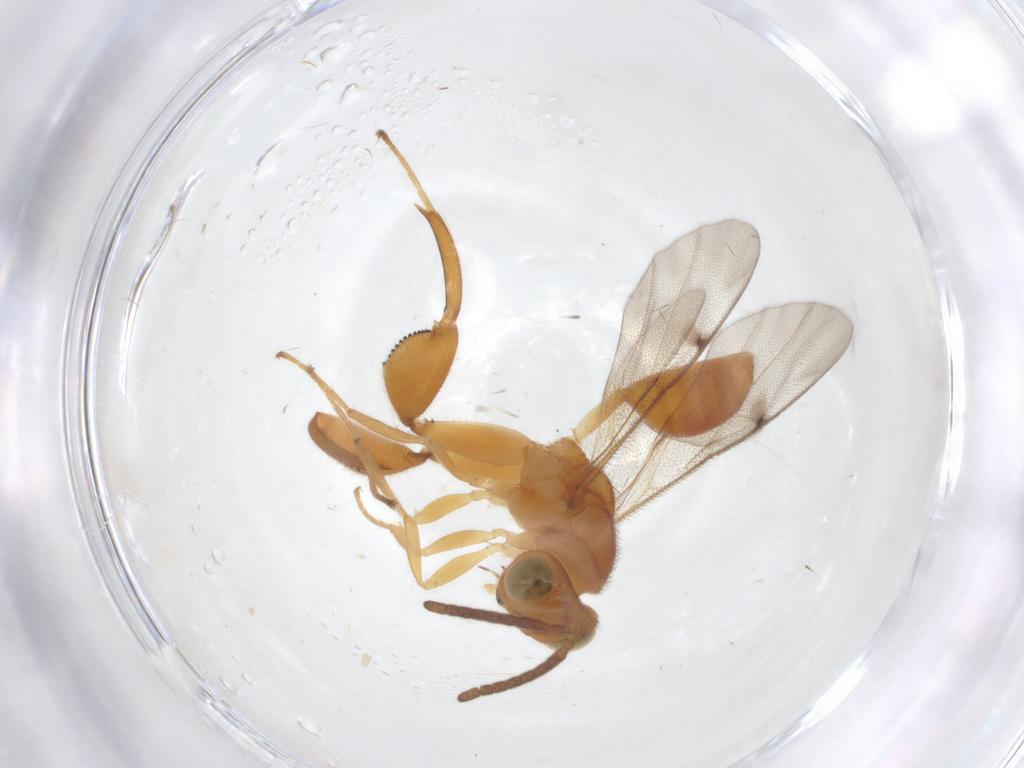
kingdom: Animalia
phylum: Arthropoda
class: Insecta
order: Hymenoptera
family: Chalcididae
